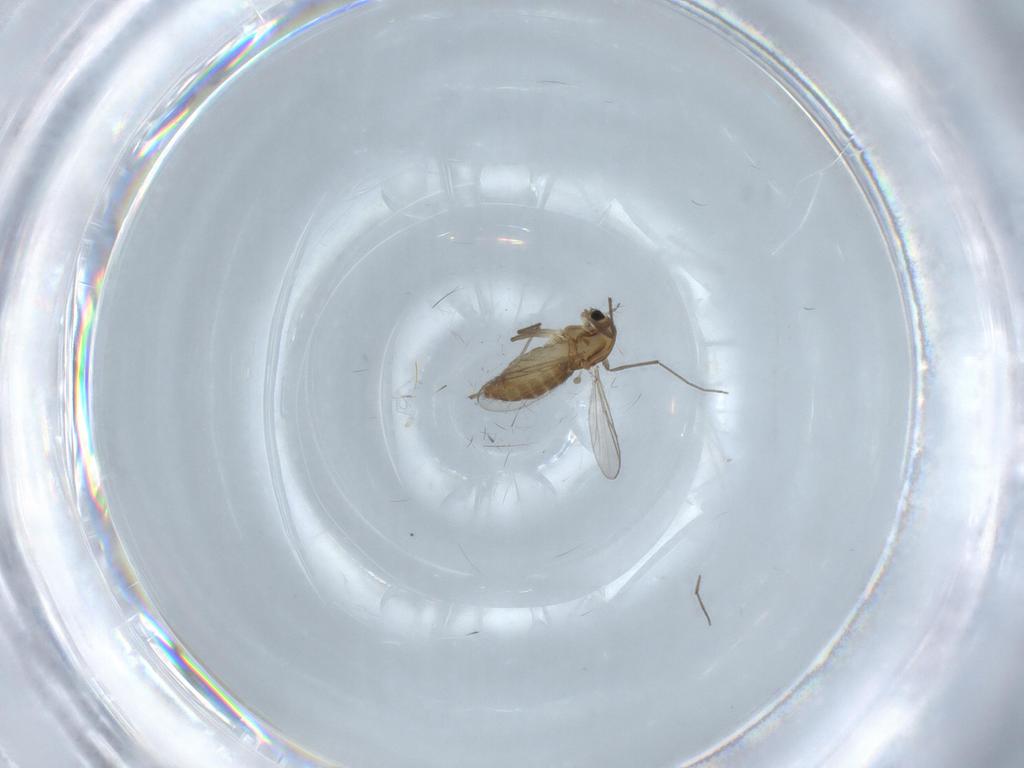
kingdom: Animalia
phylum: Arthropoda
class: Insecta
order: Diptera
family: Chironomidae
